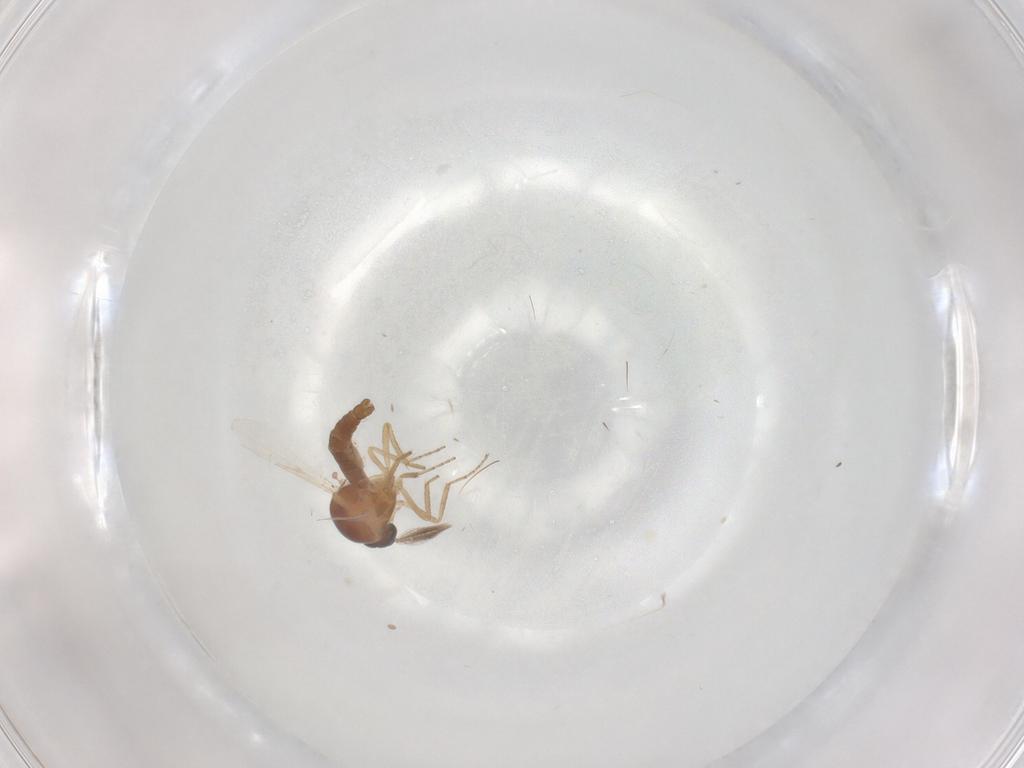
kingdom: Animalia
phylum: Arthropoda
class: Insecta
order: Diptera
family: Ceratopogonidae
